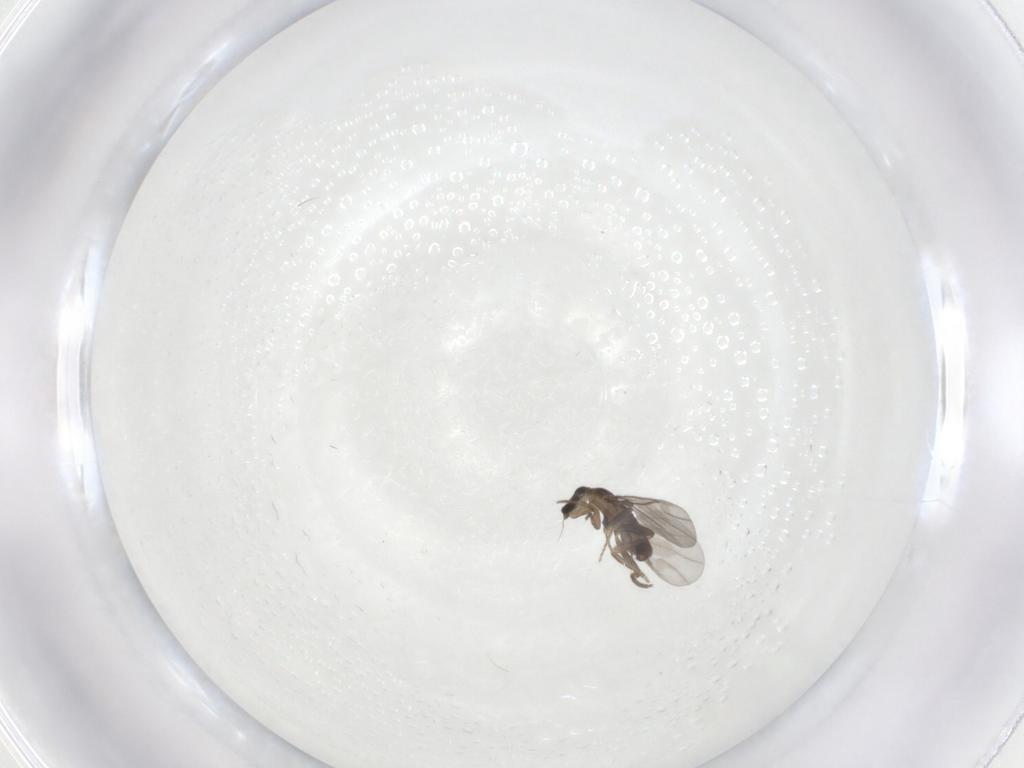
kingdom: Animalia
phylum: Arthropoda
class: Insecta
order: Diptera
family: Chironomidae
